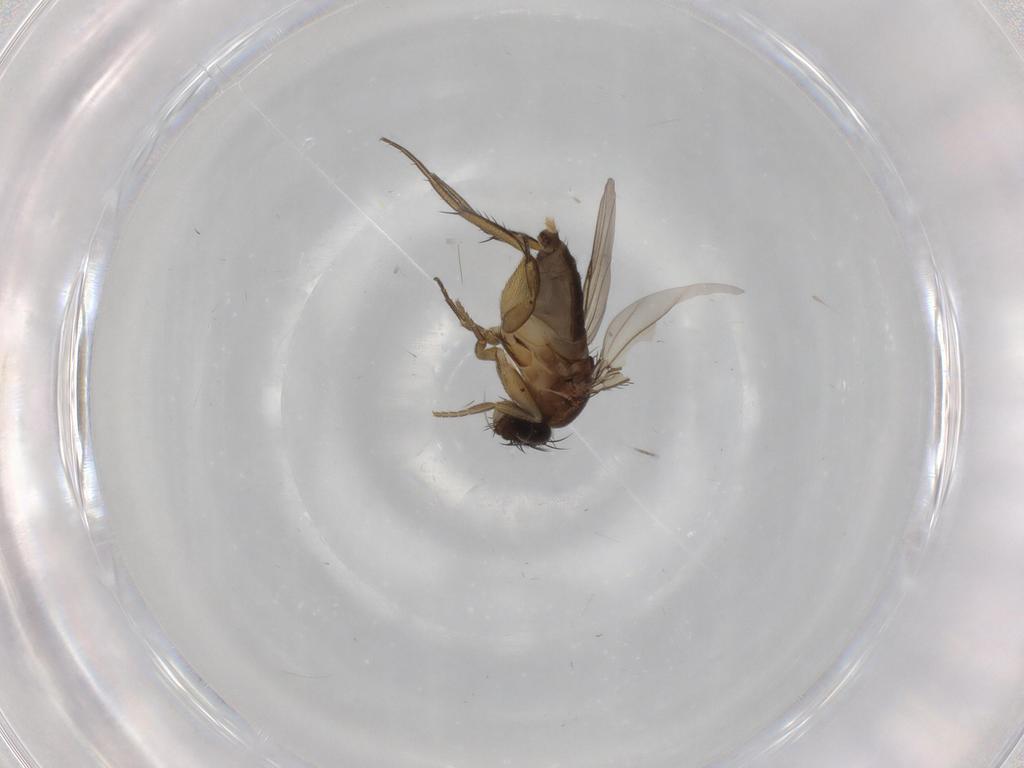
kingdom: Animalia
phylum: Arthropoda
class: Insecta
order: Diptera
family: Phoridae
